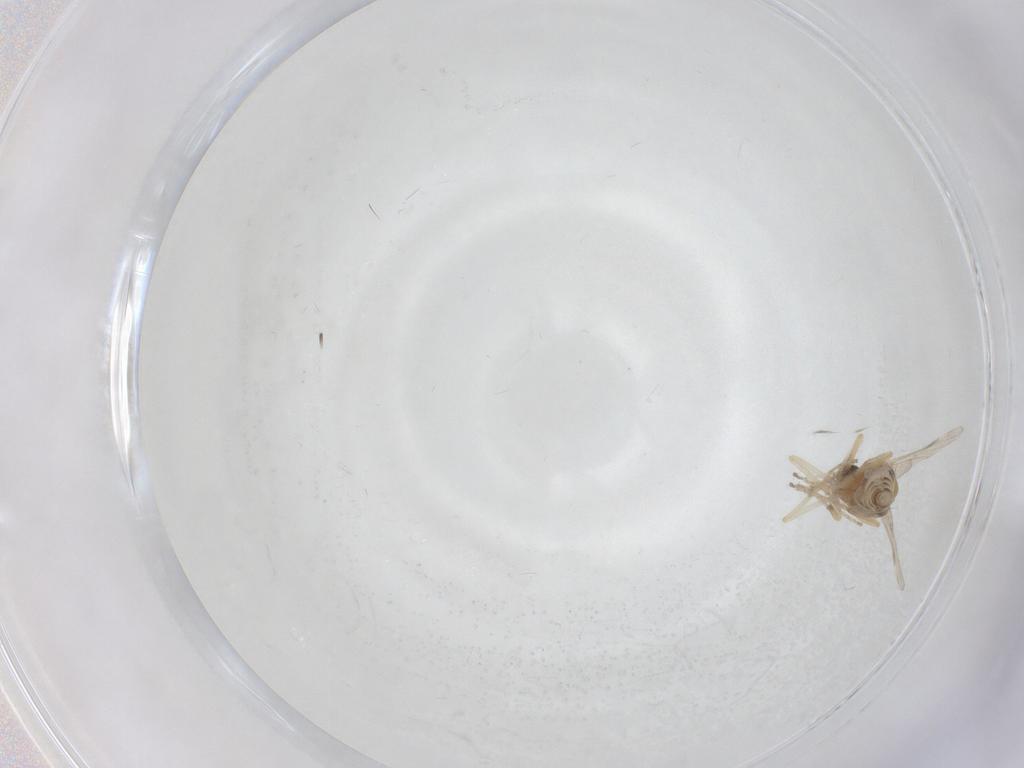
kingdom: Animalia
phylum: Arthropoda
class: Insecta
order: Diptera
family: Ceratopogonidae
